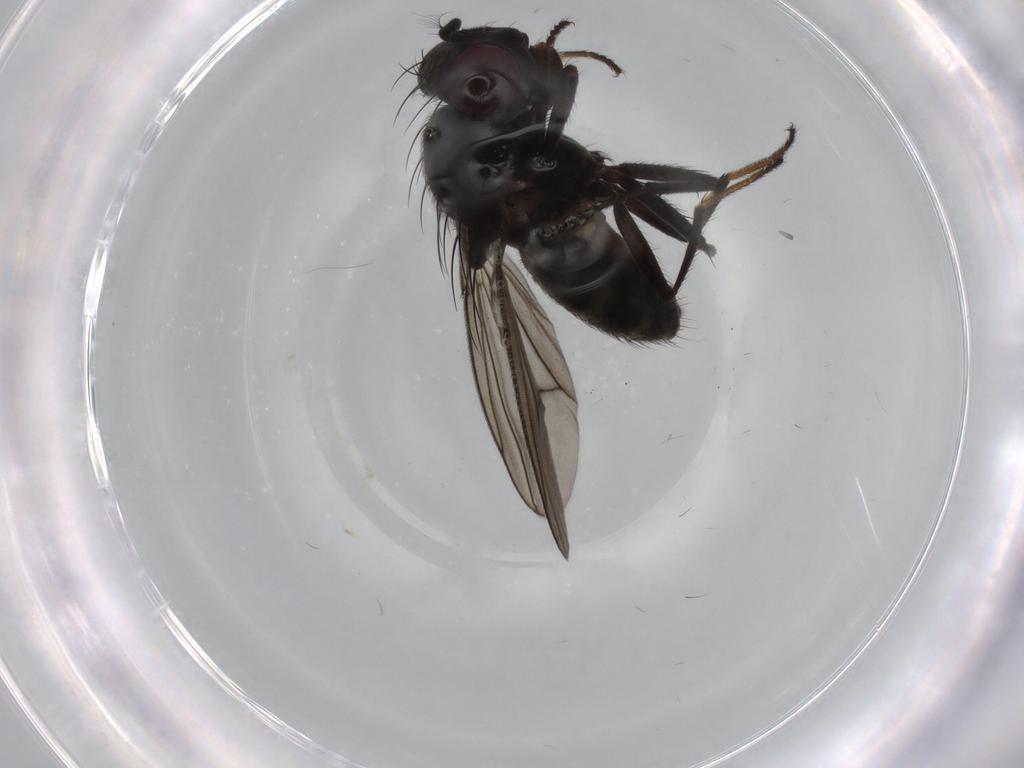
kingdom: Animalia
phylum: Arthropoda
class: Insecta
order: Diptera
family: Ephydridae
